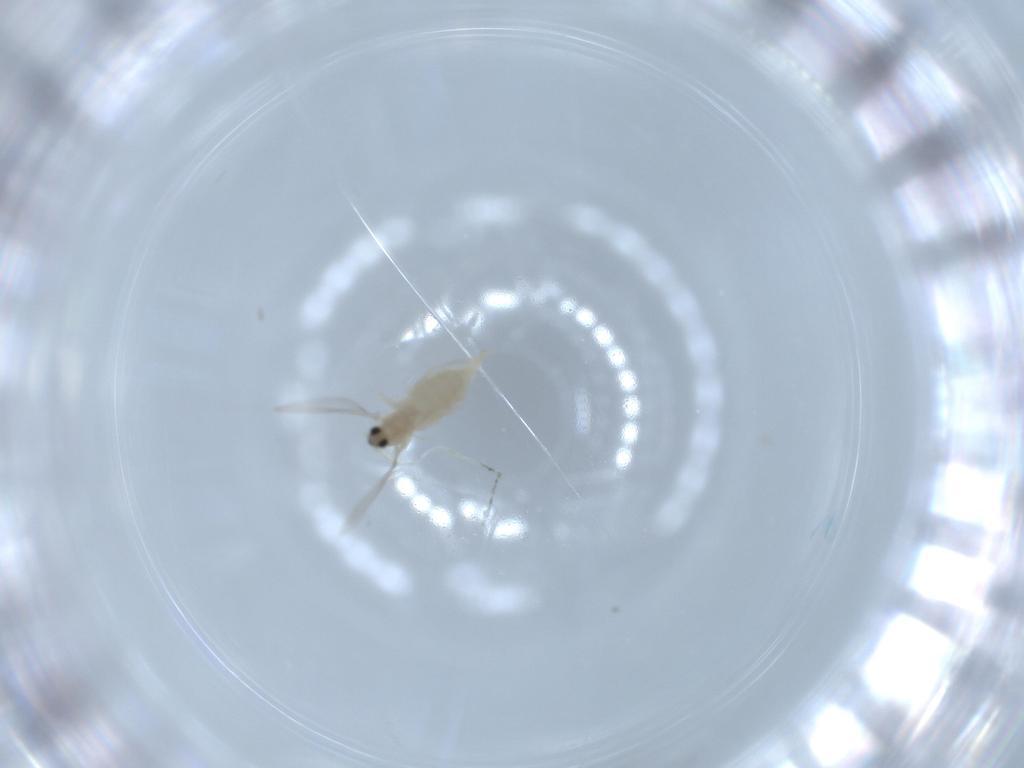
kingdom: Animalia
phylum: Arthropoda
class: Insecta
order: Diptera
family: Cecidomyiidae
